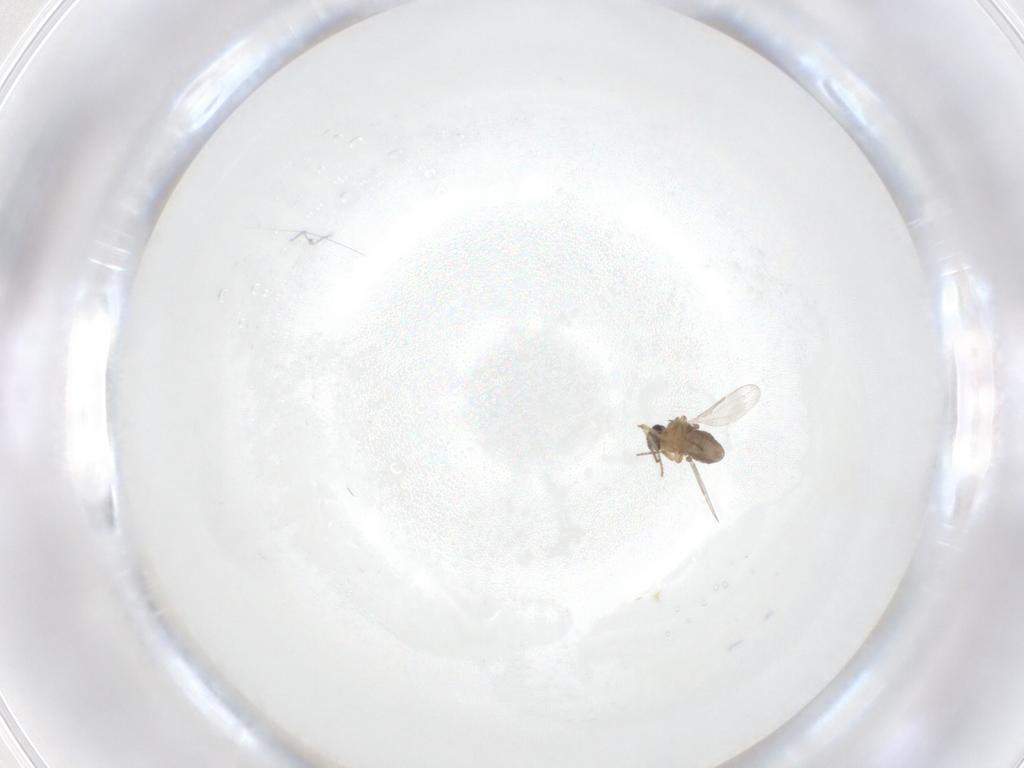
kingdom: Animalia
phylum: Arthropoda
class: Insecta
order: Diptera
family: Ceratopogonidae
